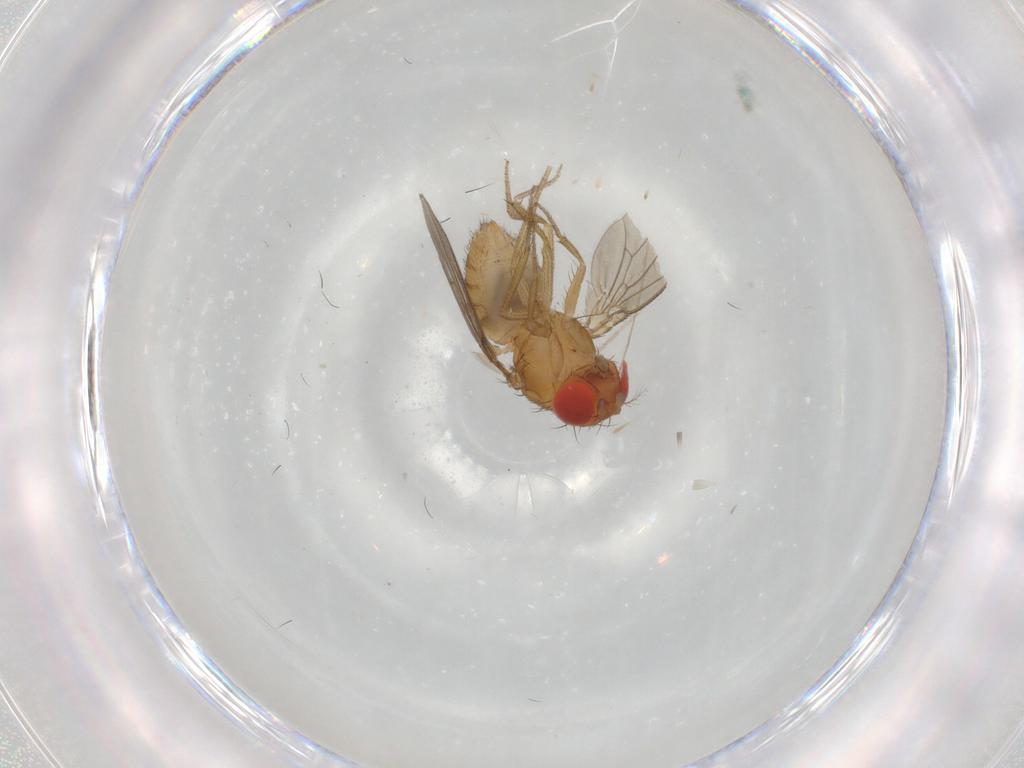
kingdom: Animalia
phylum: Arthropoda
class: Insecta
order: Diptera
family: Drosophilidae
